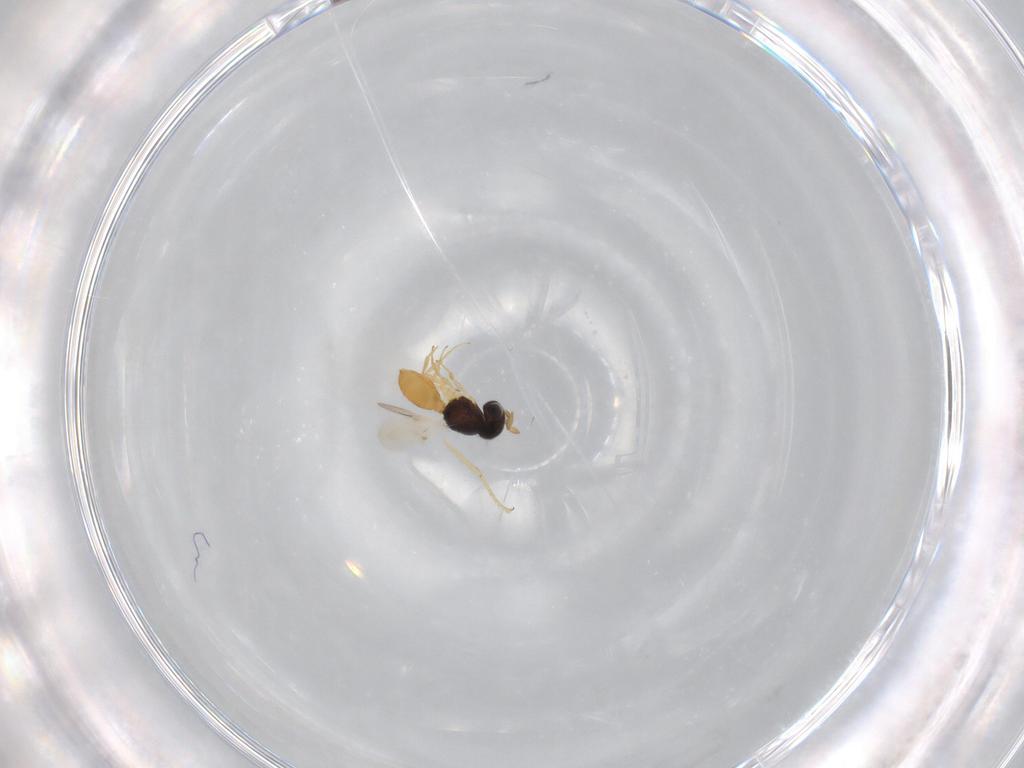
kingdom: Animalia
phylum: Arthropoda
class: Insecta
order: Hymenoptera
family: Scelionidae
